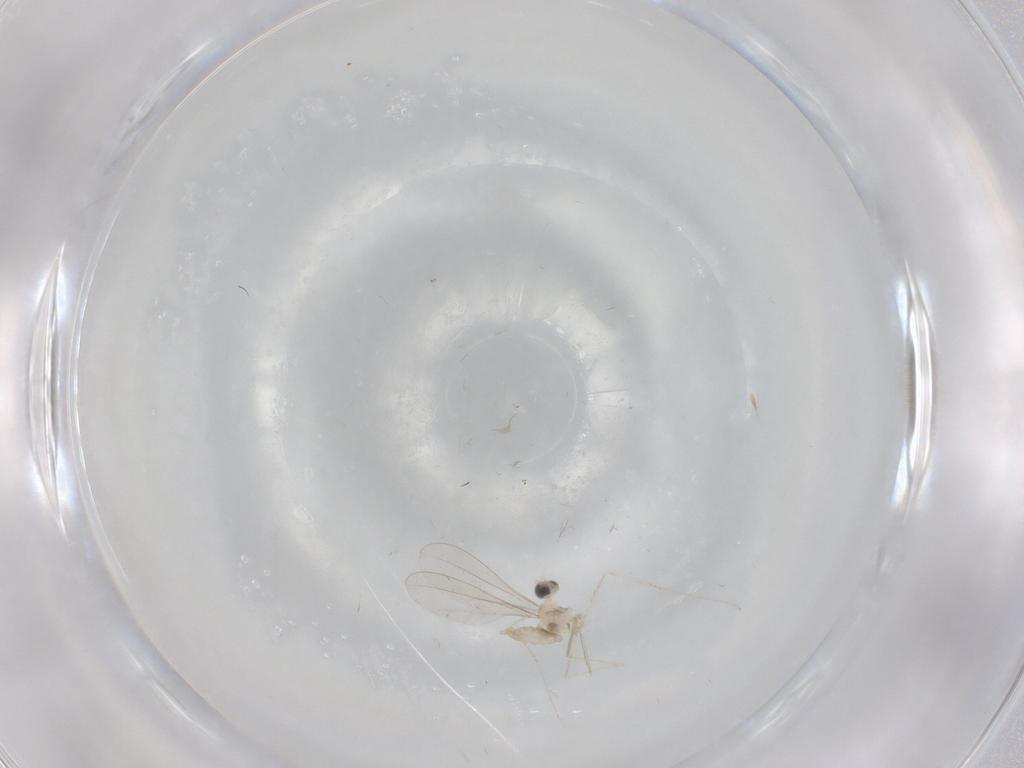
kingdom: Animalia
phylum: Arthropoda
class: Insecta
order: Diptera
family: Cecidomyiidae
